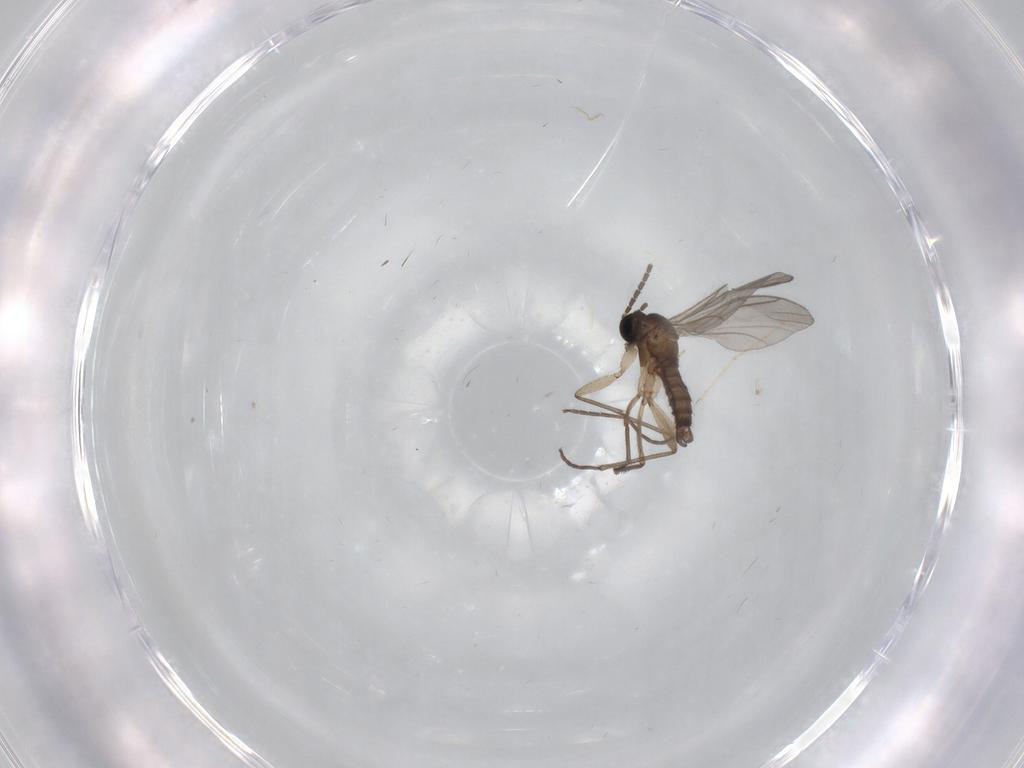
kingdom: Animalia
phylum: Arthropoda
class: Insecta
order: Diptera
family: Sciaridae
